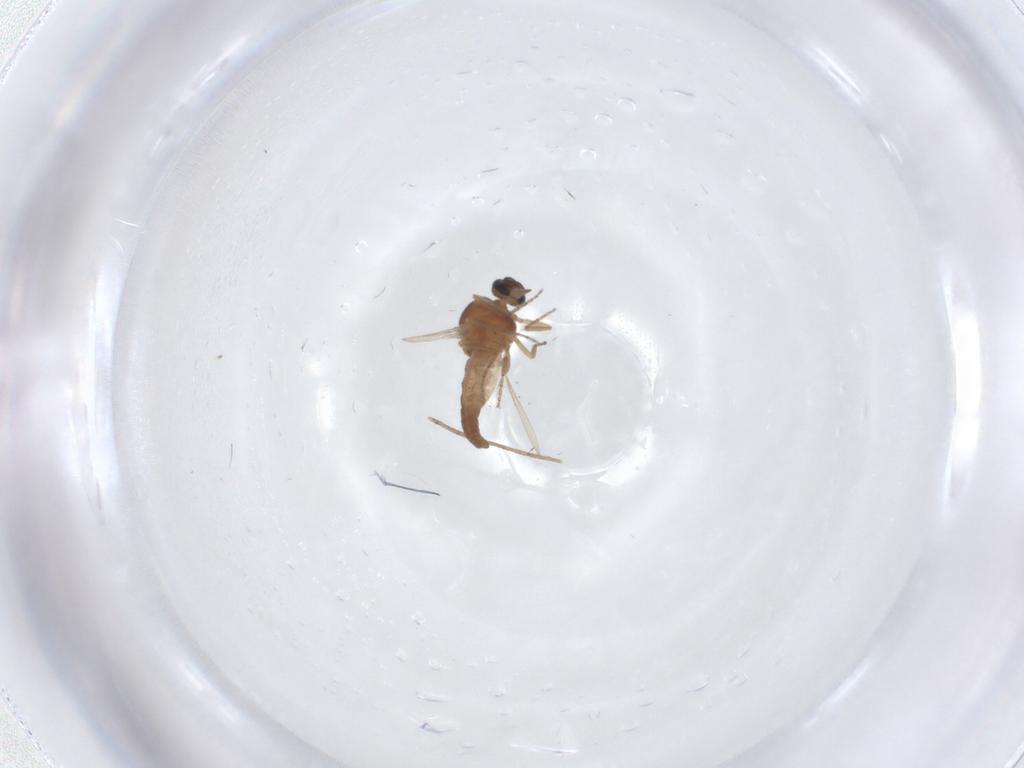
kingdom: Animalia
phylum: Arthropoda
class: Insecta
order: Diptera
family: Ceratopogonidae
